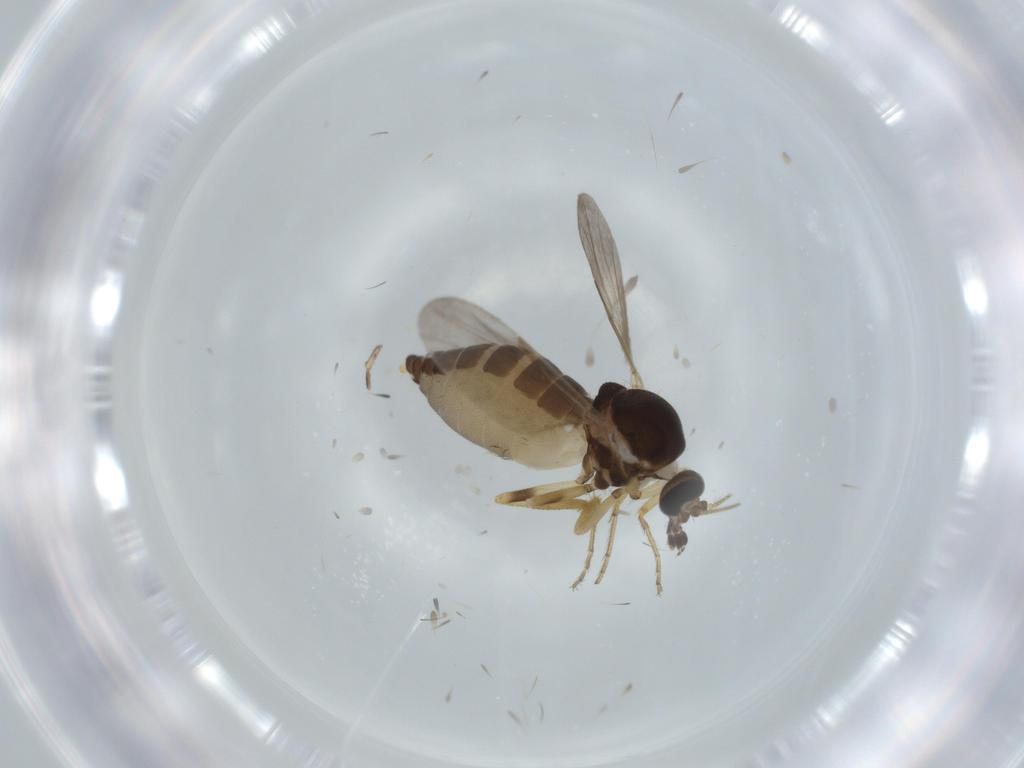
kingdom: Animalia
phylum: Arthropoda
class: Insecta
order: Diptera
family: Ceratopogonidae
